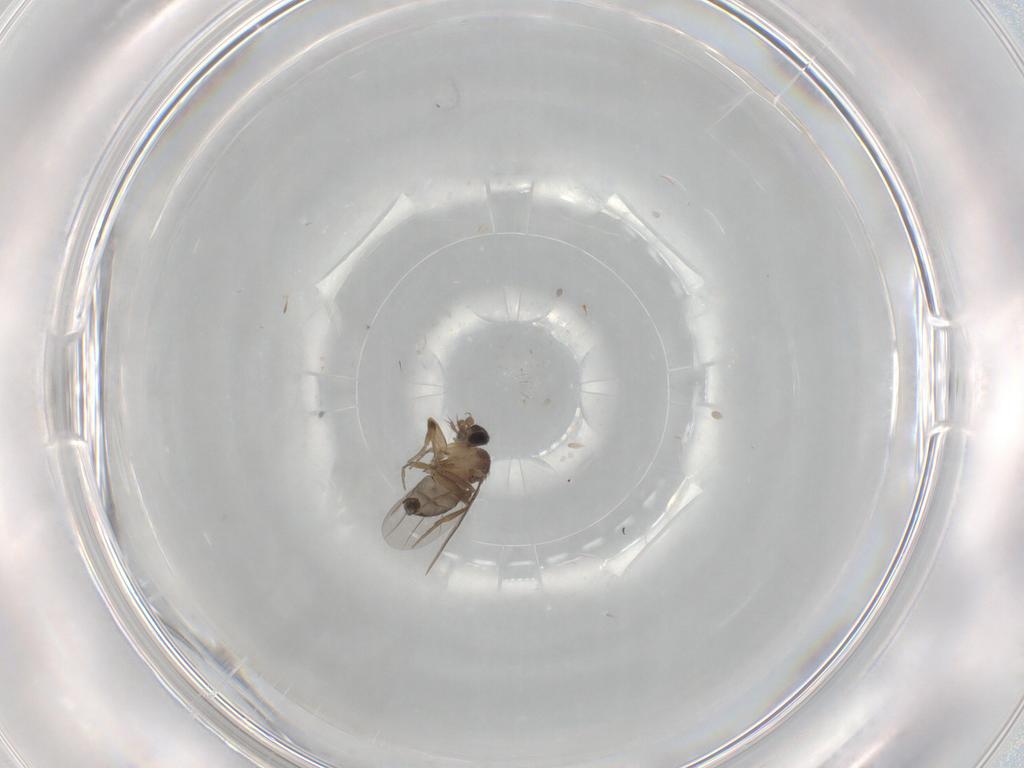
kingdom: Animalia
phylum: Arthropoda
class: Insecta
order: Diptera
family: Phoridae
